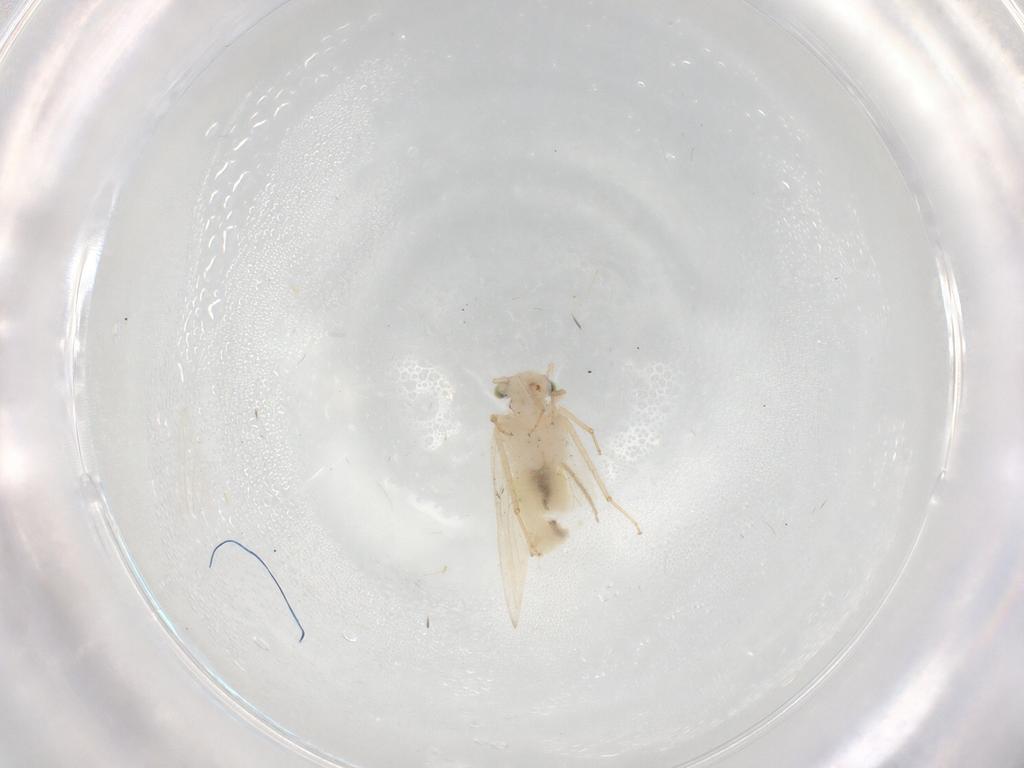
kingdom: Animalia
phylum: Arthropoda
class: Insecta
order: Psocodea
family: Lepidopsocidae
